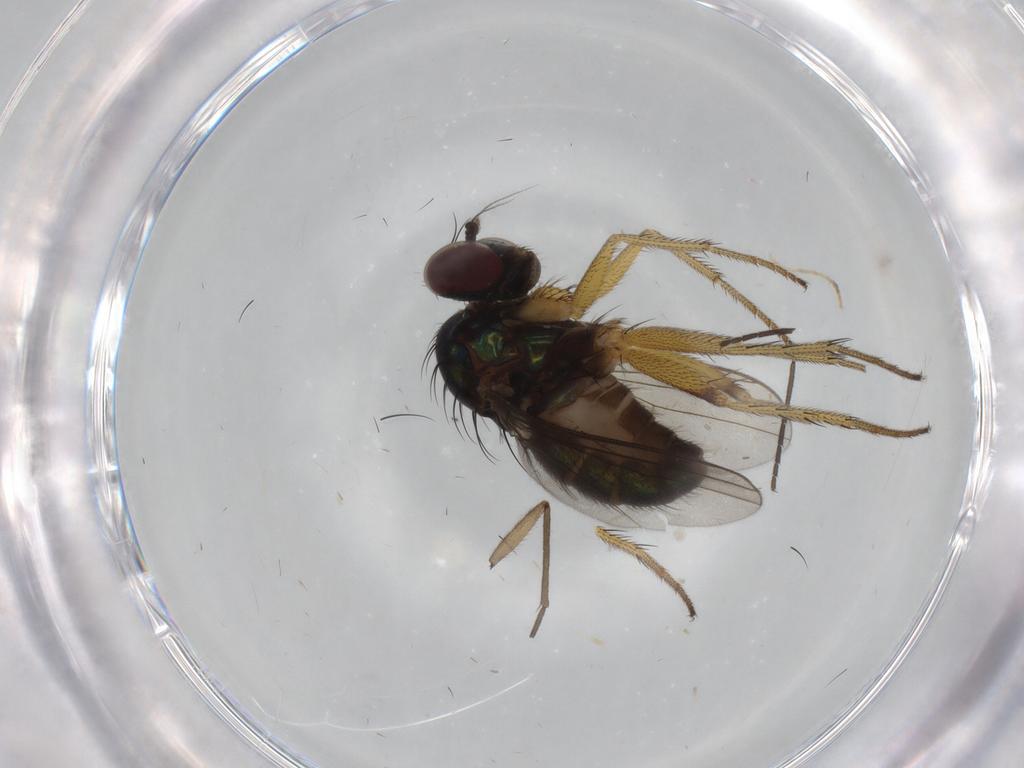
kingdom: Animalia
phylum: Arthropoda
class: Insecta
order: Diptera
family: Dolichopodidae
